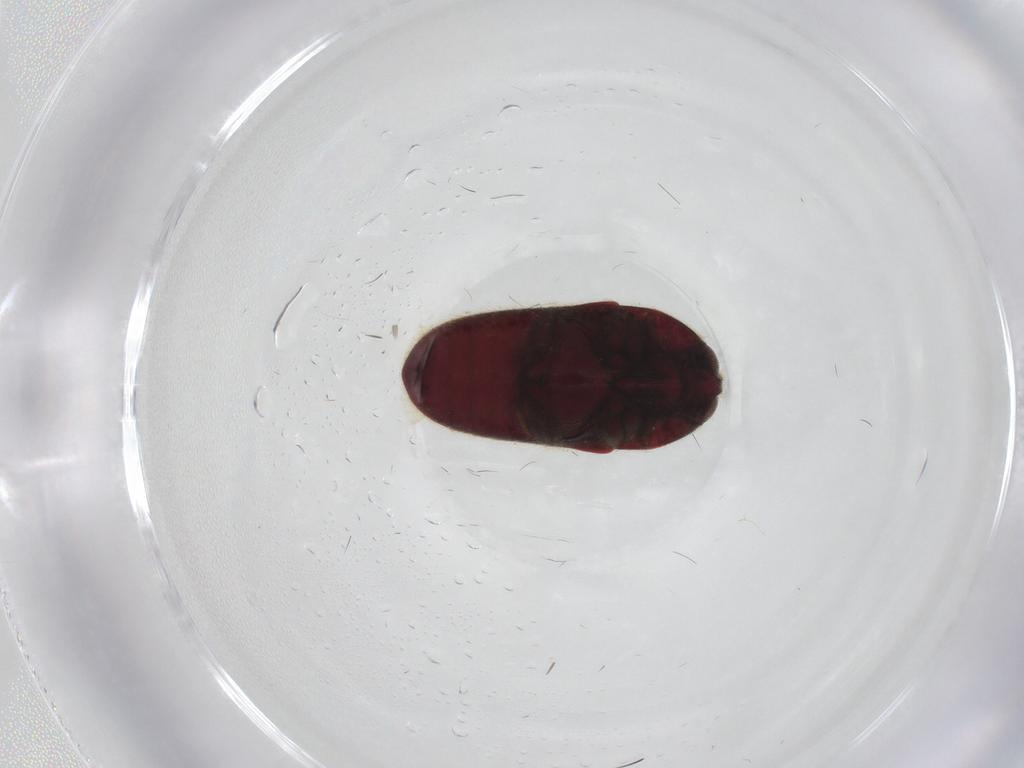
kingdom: Animalia
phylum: Arthropoda
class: Insecta
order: Coleoptera
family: Throscidae
